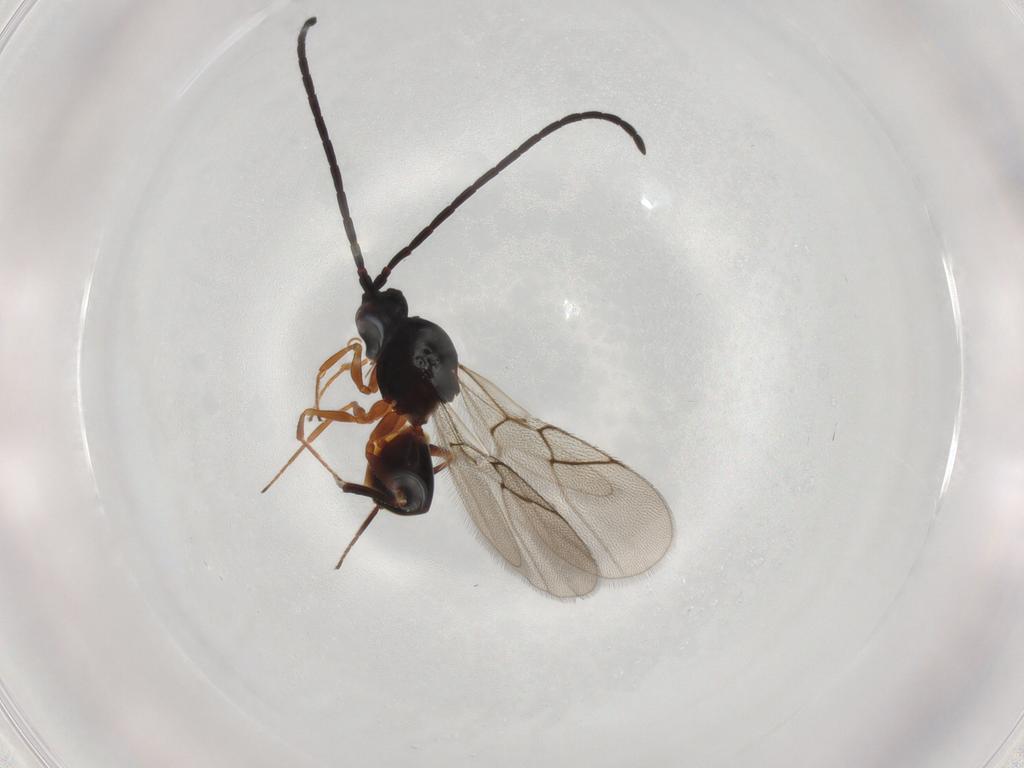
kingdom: Animalia
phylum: Arthropoda
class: Insecta
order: Hymenoptera
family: Figitidae
